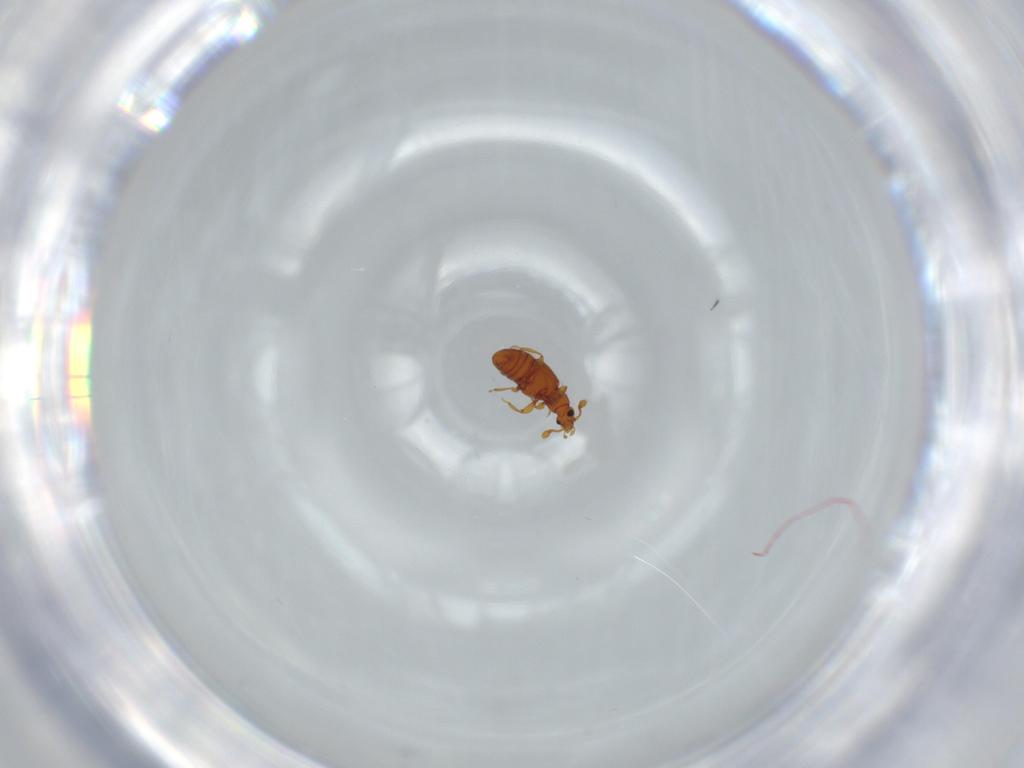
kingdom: Animalia
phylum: Arthropoda
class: Insecta
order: Coleoptera
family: Staphylinidae
